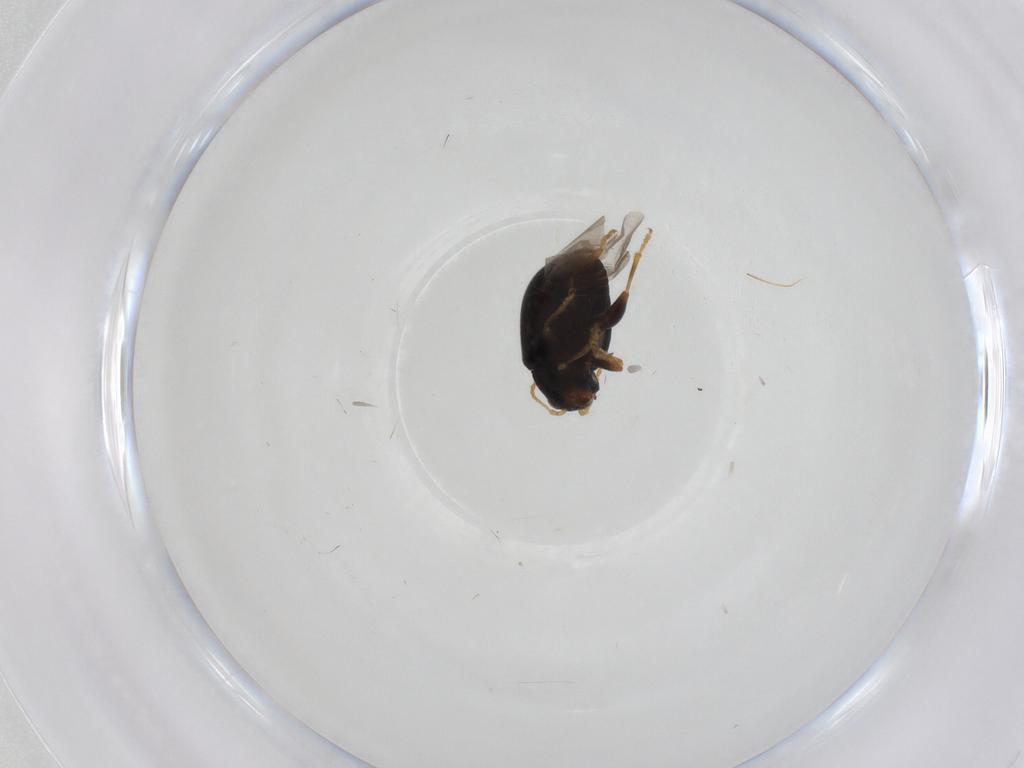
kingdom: Animalia
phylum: Arthropoda
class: Insecta
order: Coleoptera
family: Chrysomelidae
